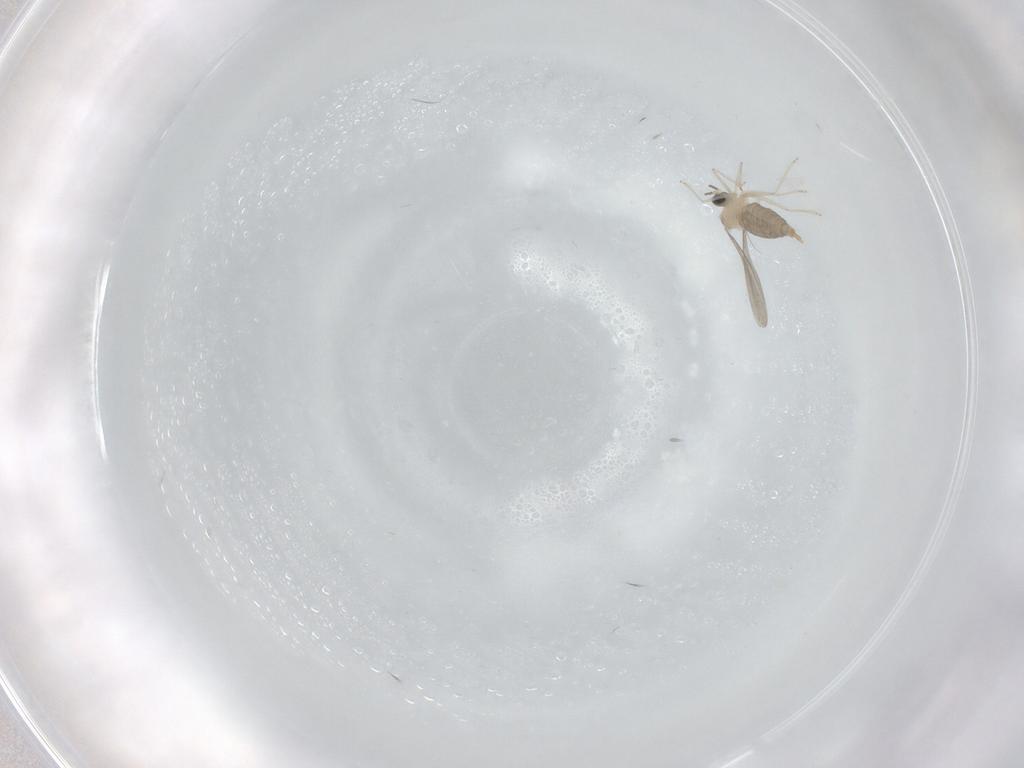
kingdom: Animalia
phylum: Arthropoda
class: Insecta
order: Diptera
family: Cecidomyiidae
